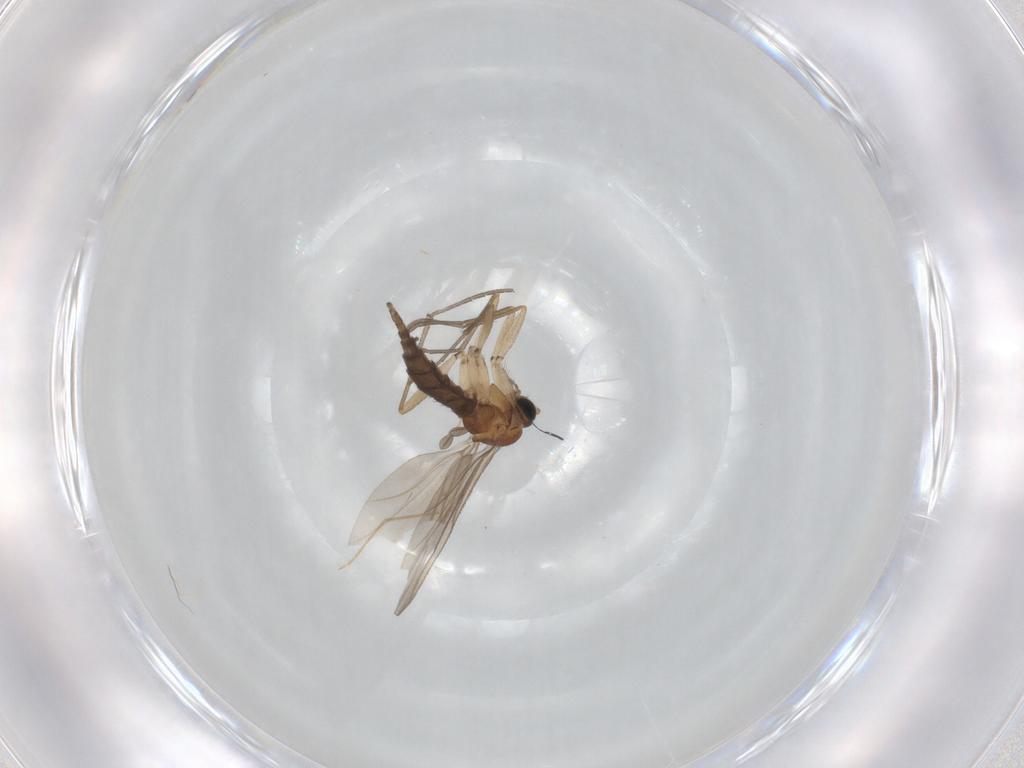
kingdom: Animalia
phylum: Arthropoda
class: Insecta
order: Diptera
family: Sciaridae
